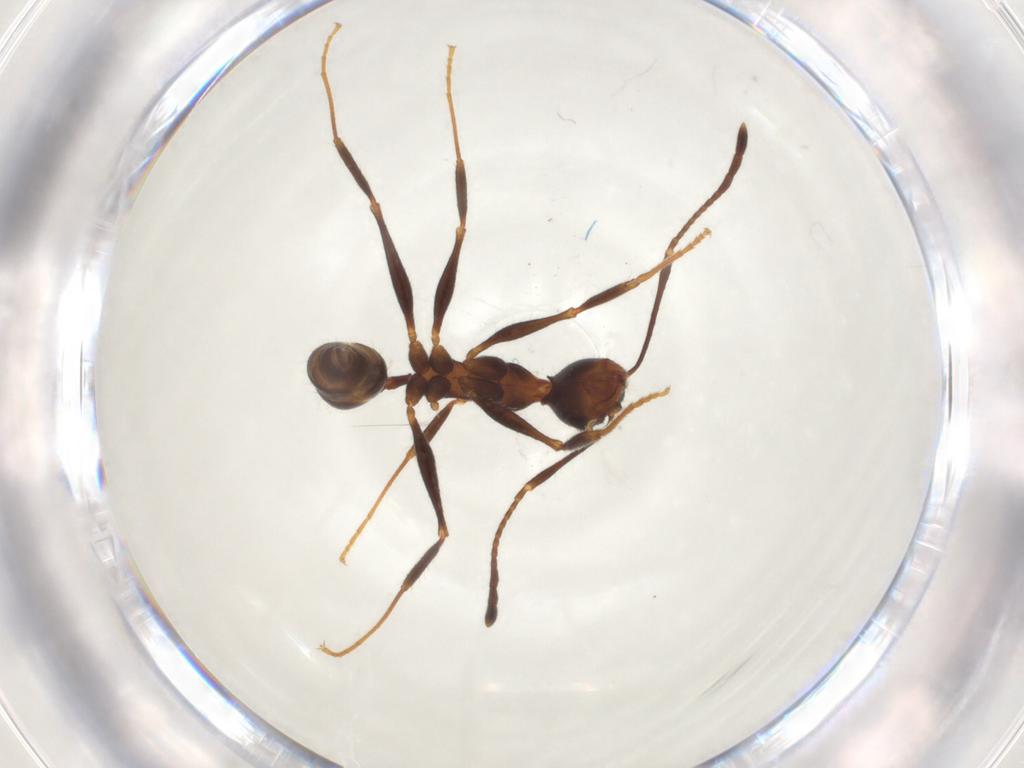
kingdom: Animalia
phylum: Arthropoda
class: Insecta
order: Hymenoptera
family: Formicidae
